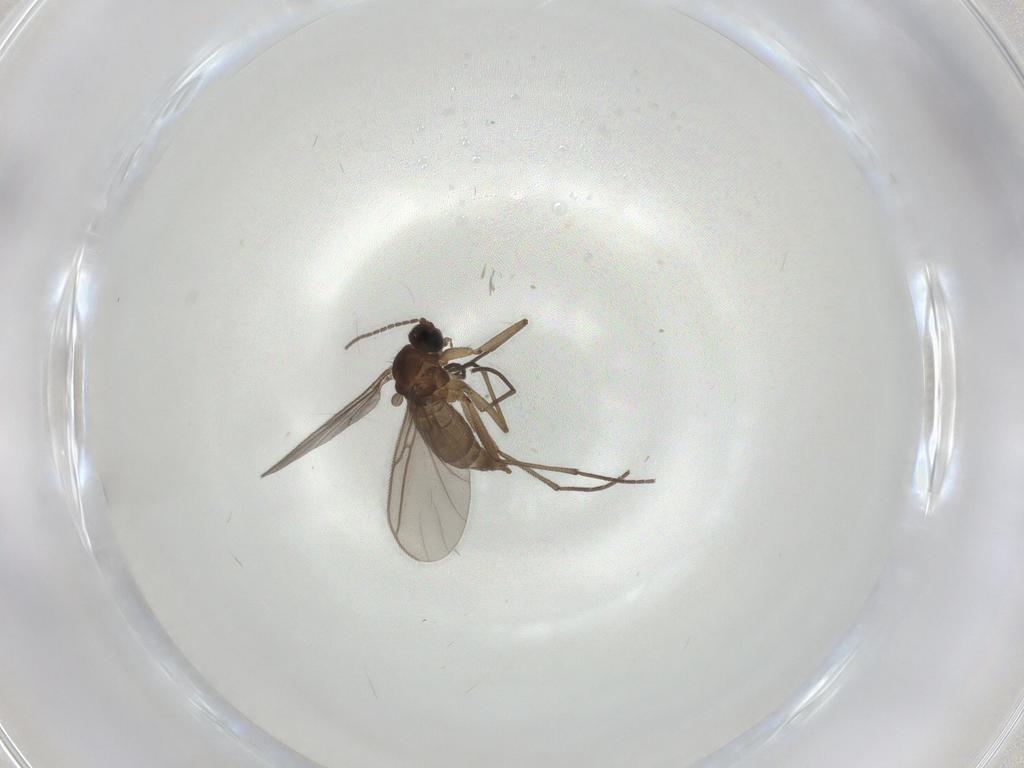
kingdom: Animalia
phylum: Arthropoda
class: Insecta
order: Diptera
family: Sciaridae
